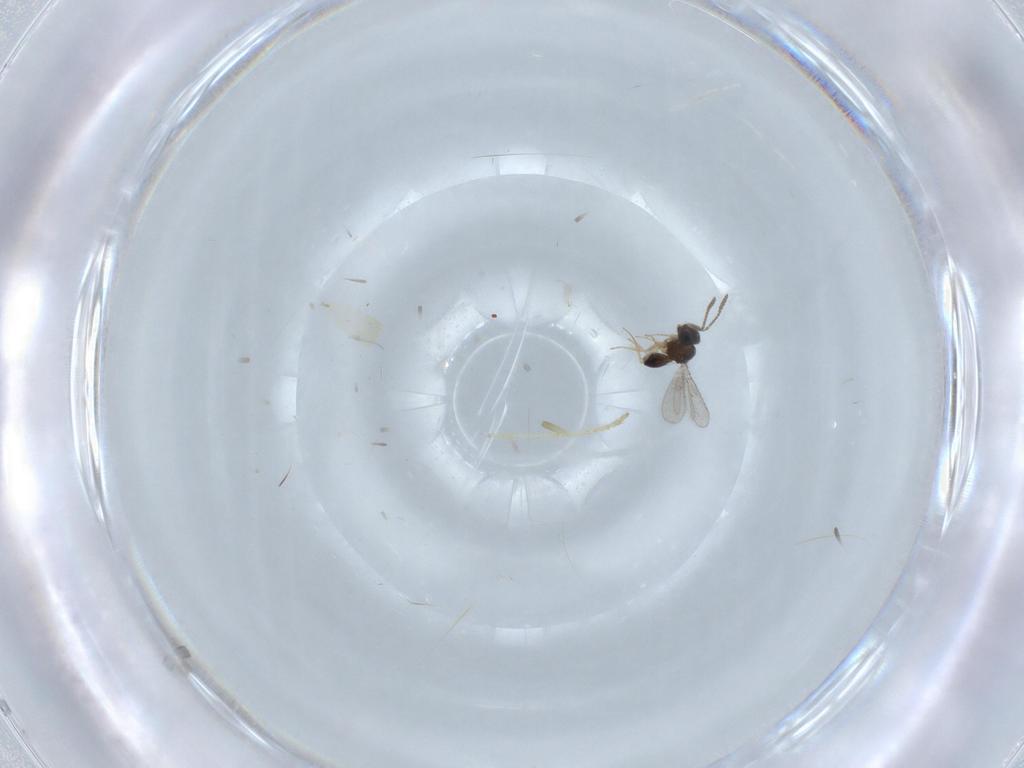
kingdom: Animalia
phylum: Arthropoda
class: Insecta
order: Hymenoptera
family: Scelionidae
